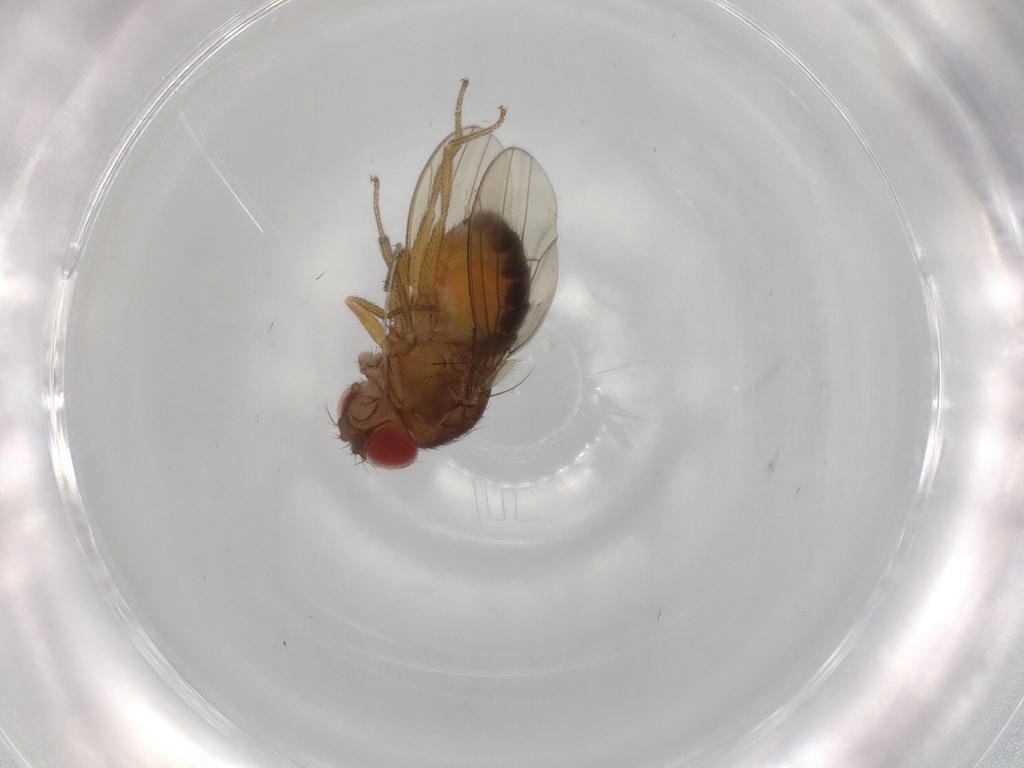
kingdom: Animalia
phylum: Arthropoda
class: Insecta
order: Diptera
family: Drosophilidae
